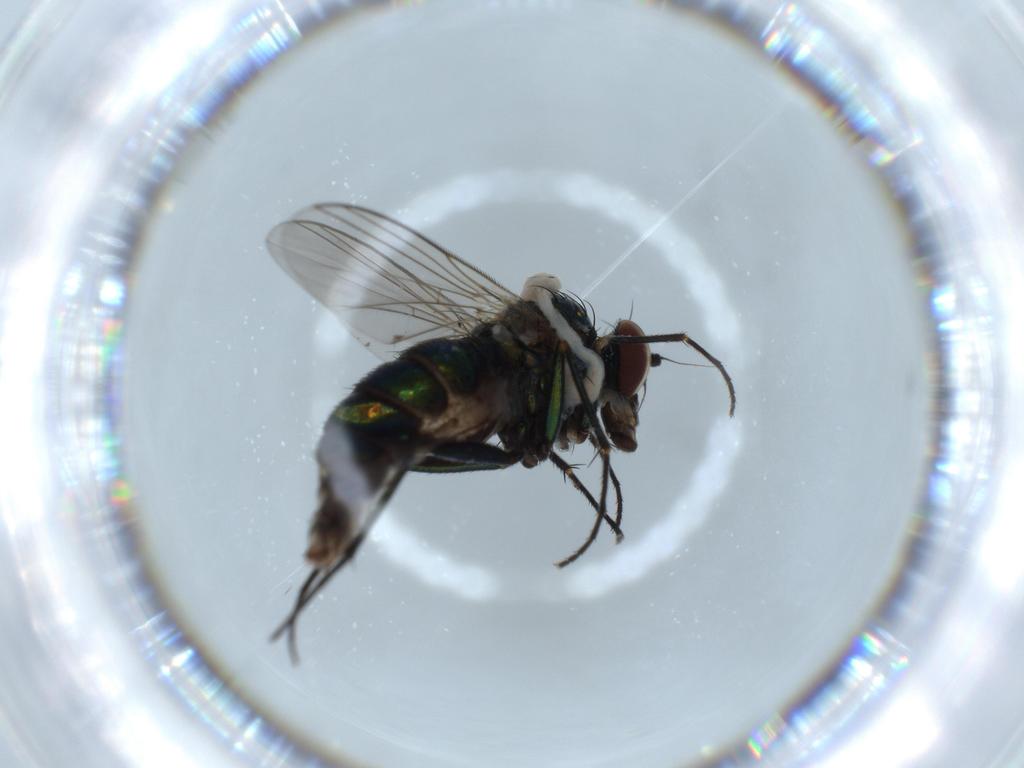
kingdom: Animalia
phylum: Arthropoda
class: Insecta
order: Diptera
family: Dolichopodidae
